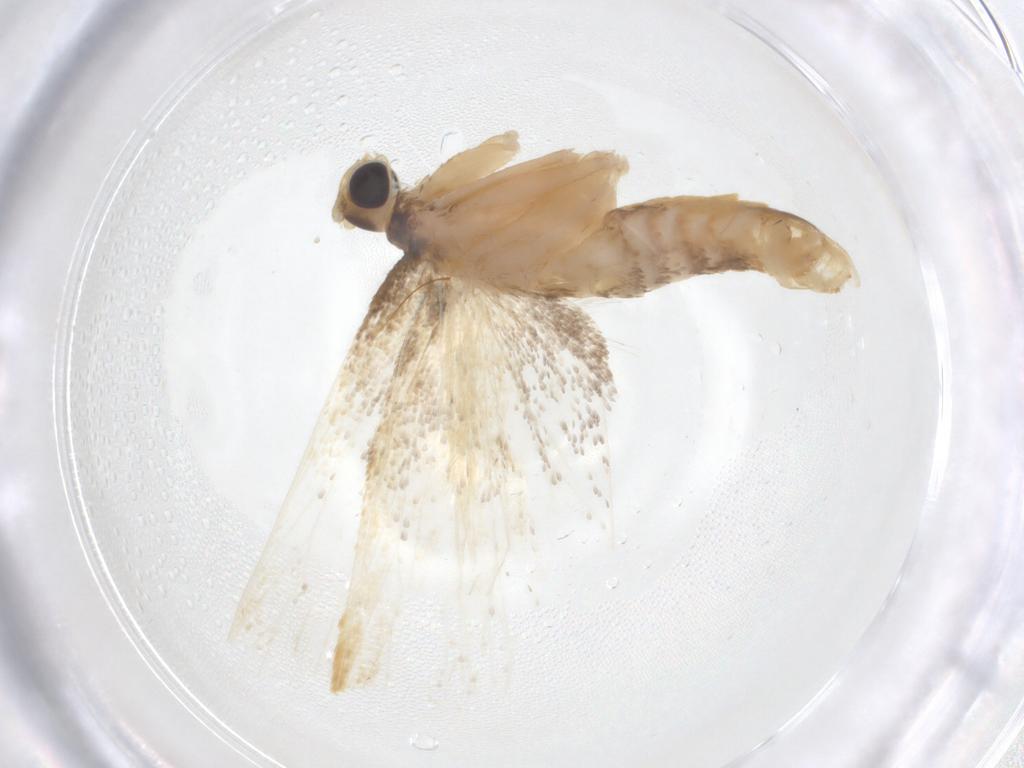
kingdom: Animalia
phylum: Arthropoda
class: Insecta
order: Lepidoptera
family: Lecithoceridae
